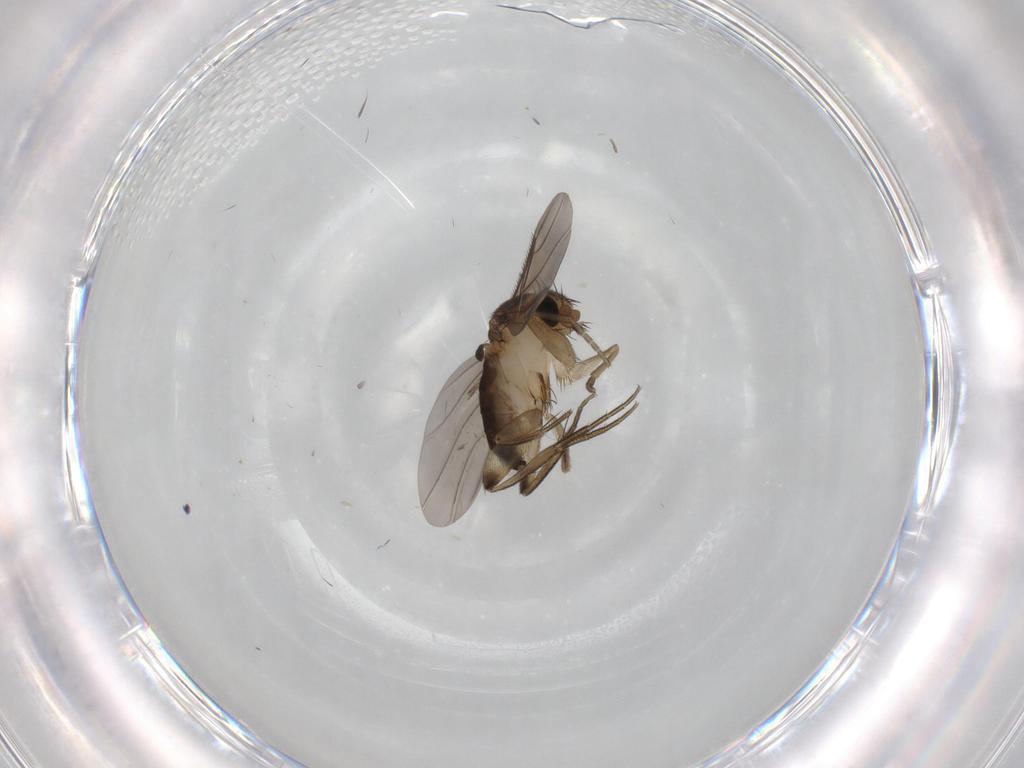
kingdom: Animalia
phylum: Arthropoda
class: Insecta
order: Diptera
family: Phoridae
